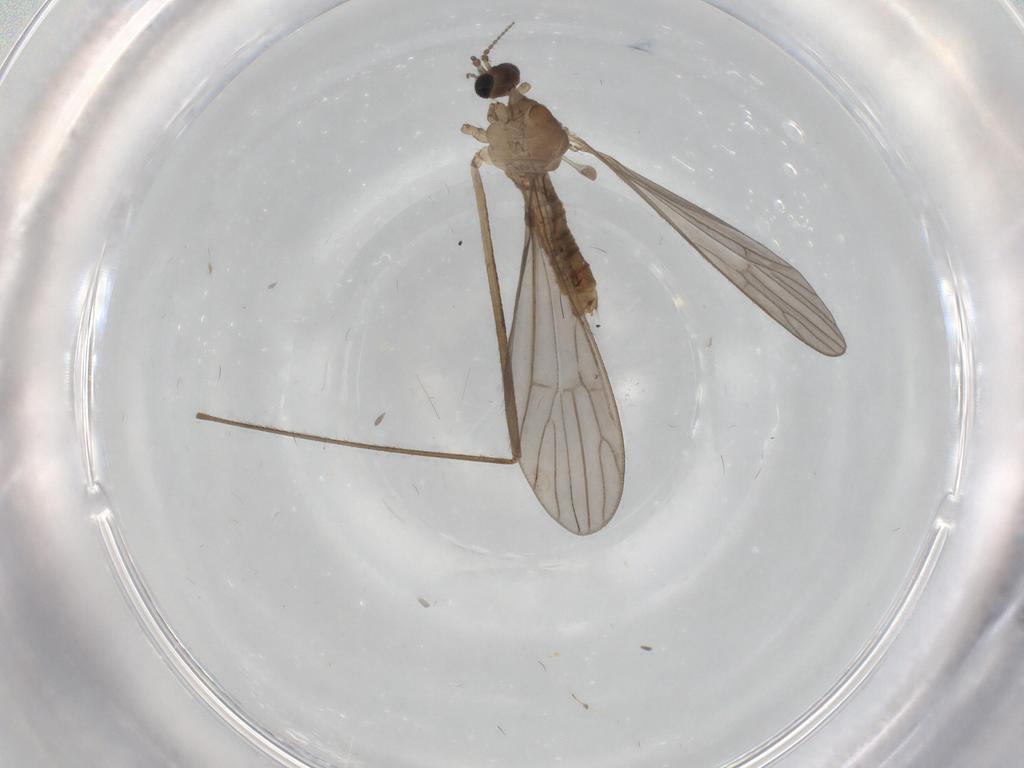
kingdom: Animalia
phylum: Arthropoda
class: Insecta
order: Diptera
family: Limoniidae
